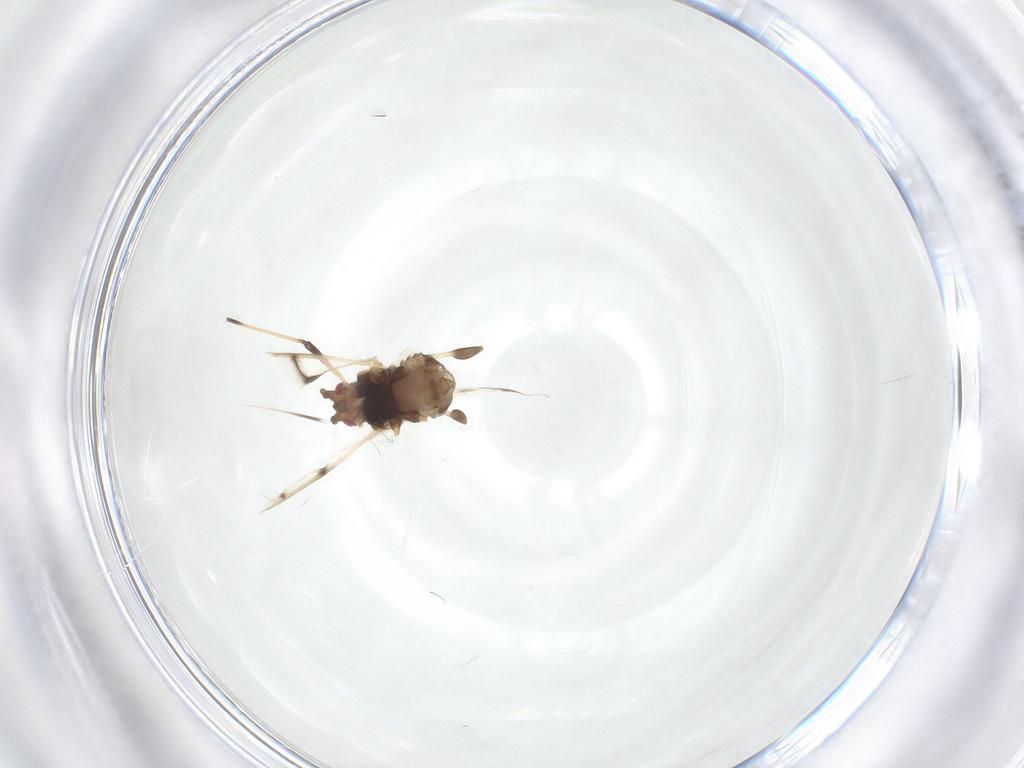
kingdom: Animalia
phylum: Arthropoda
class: Insecta
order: Hemiptera
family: Aphididae
